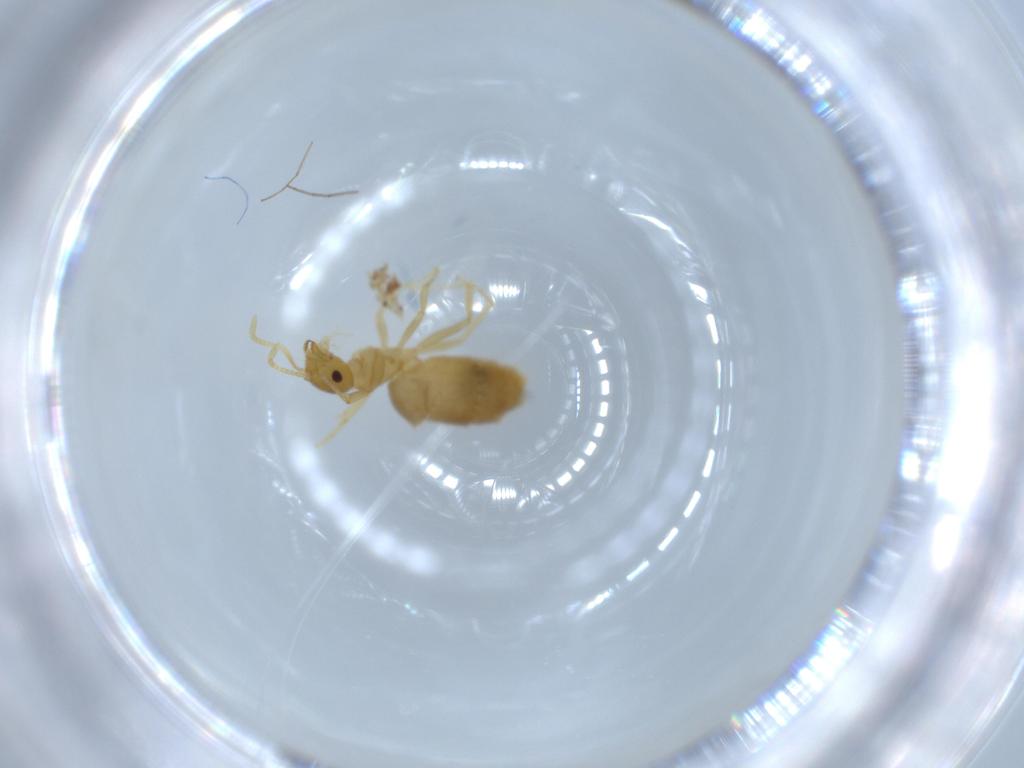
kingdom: Animalia
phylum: Arthropoda
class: Insecta
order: Hymenoptera
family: Formicidae
